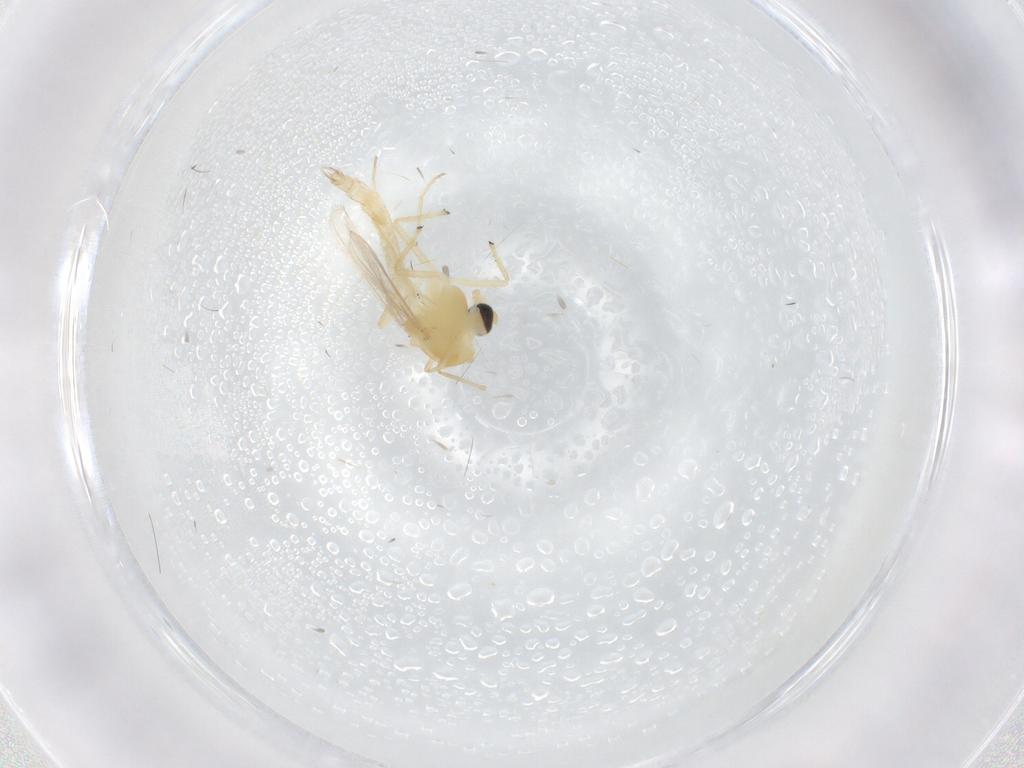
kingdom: Animalia
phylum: Arthropoda
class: Insecta
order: Diptera
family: Chironomidae
